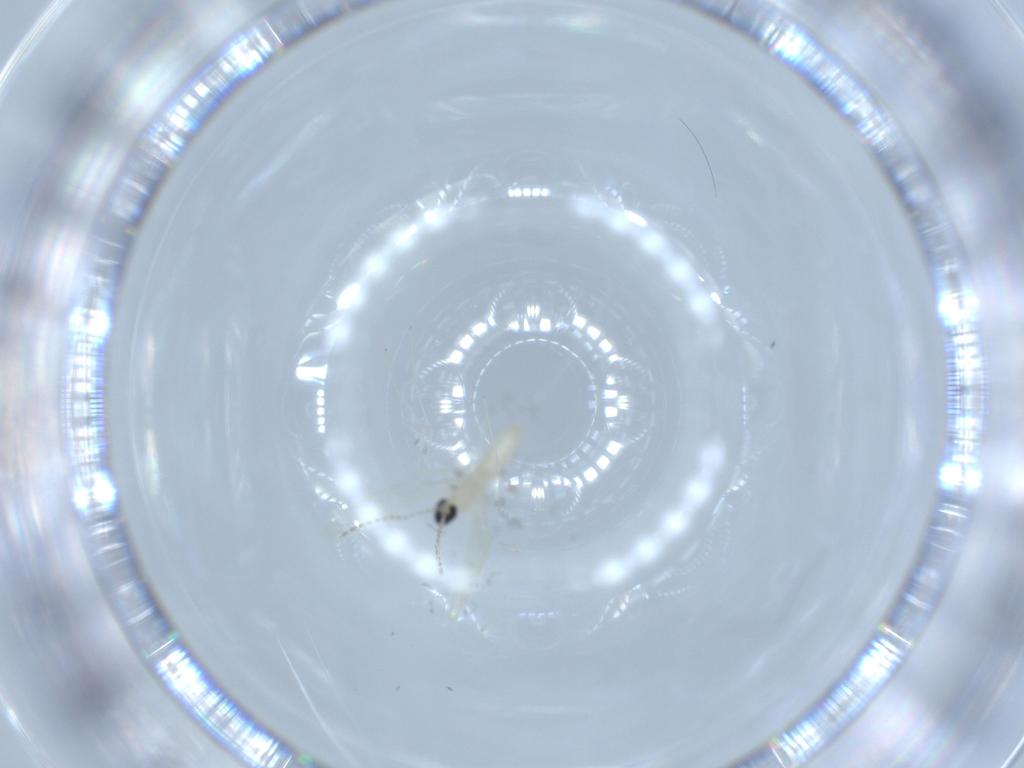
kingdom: Animalia
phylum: Arthropoda
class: Insecta
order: Diptera
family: Cecidomyiidae
